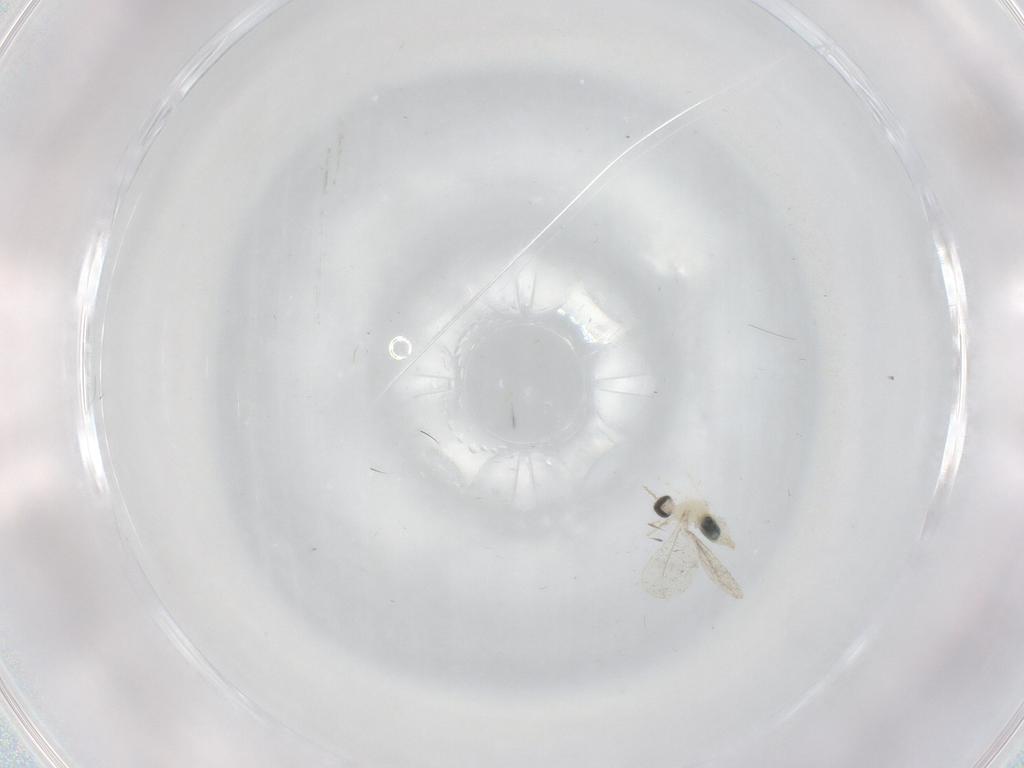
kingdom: Animalia
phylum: Arthropoda
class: Insecta
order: Diptera
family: Cecidomyiidae
